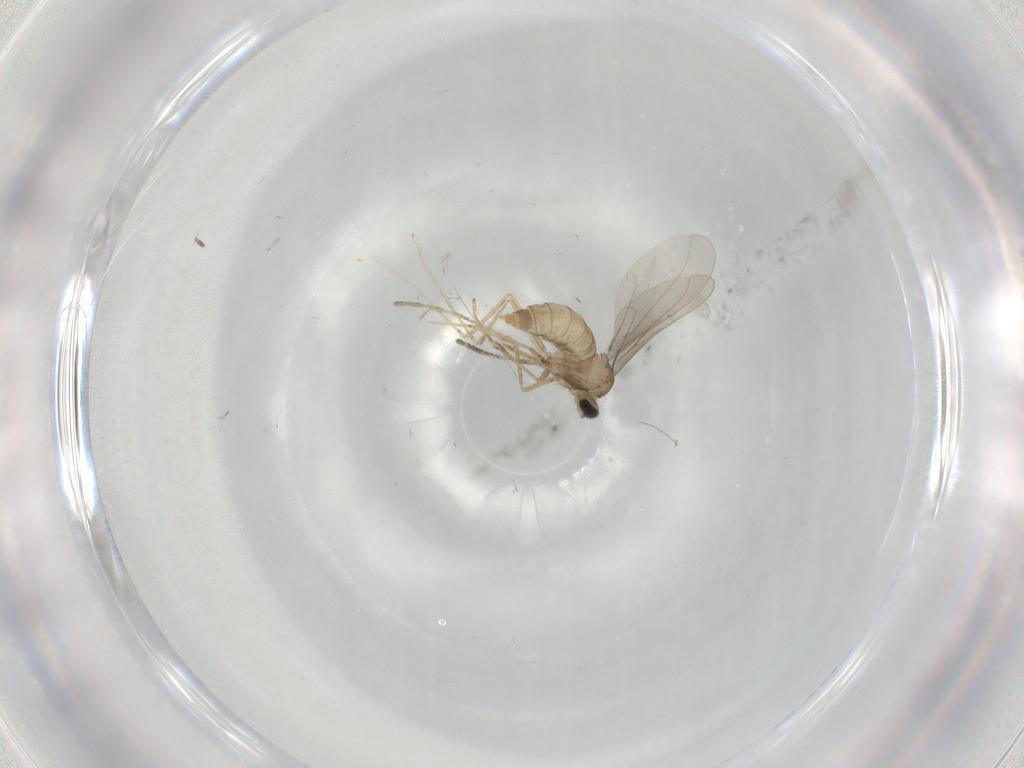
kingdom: Animalia
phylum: Arthropoda
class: Insecta
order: Diptera
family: Cecidomyiidae
